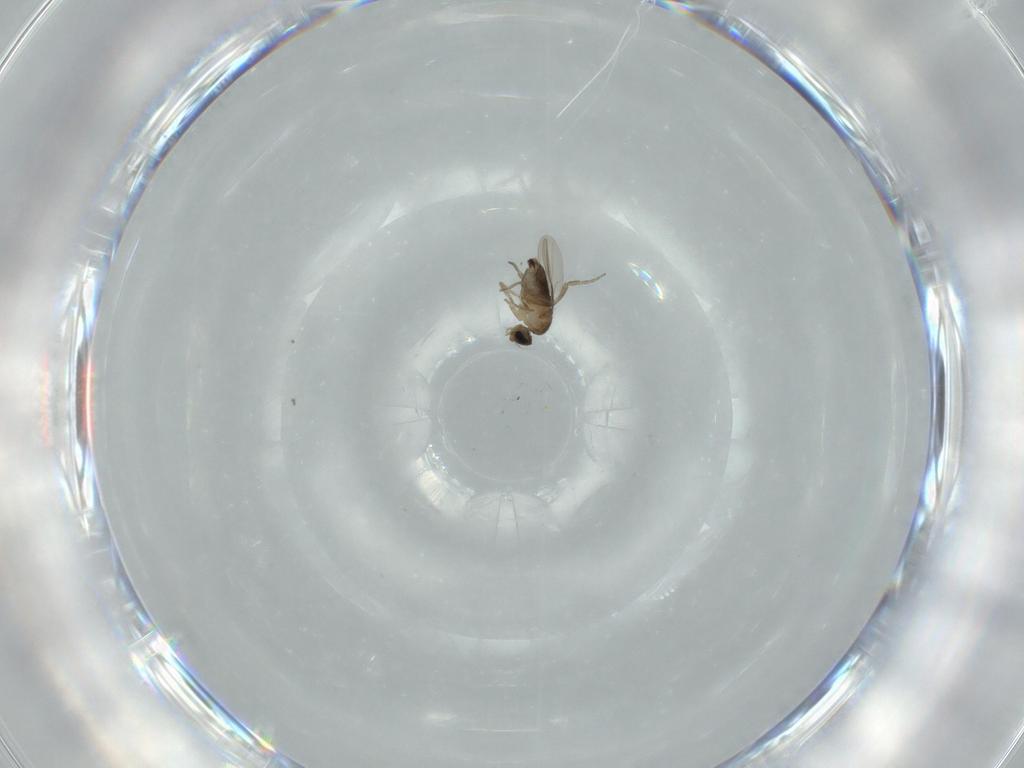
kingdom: Animalia
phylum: Arthropoda
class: Insecta
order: Diptera
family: Phoridae
